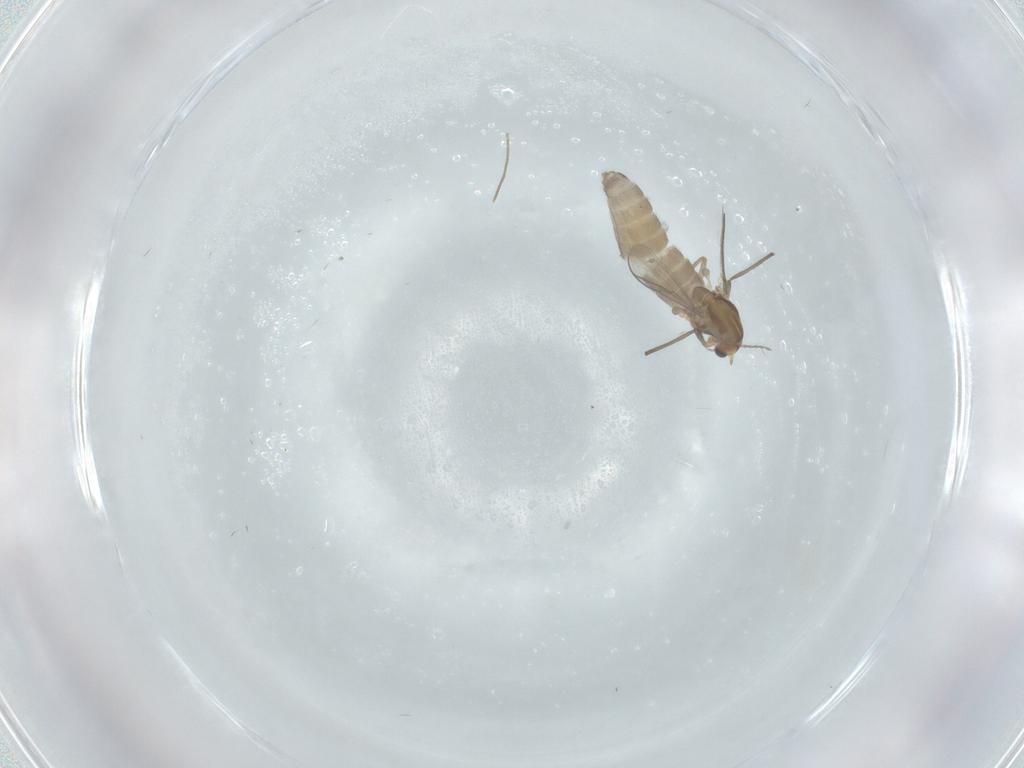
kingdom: Animalia
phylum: Arthropoda
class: Insecta
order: Diptera
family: Chironomidae
